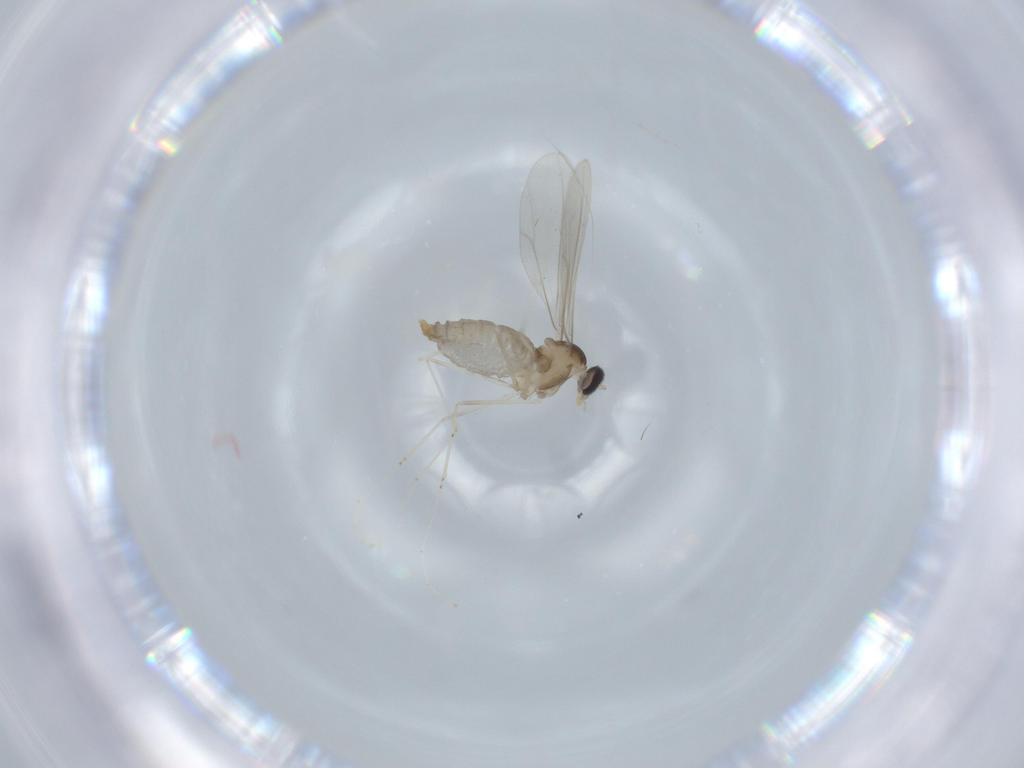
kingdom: Animalia
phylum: Arthropoda
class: Insecta
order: Diptera
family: Cecidomyiidae
